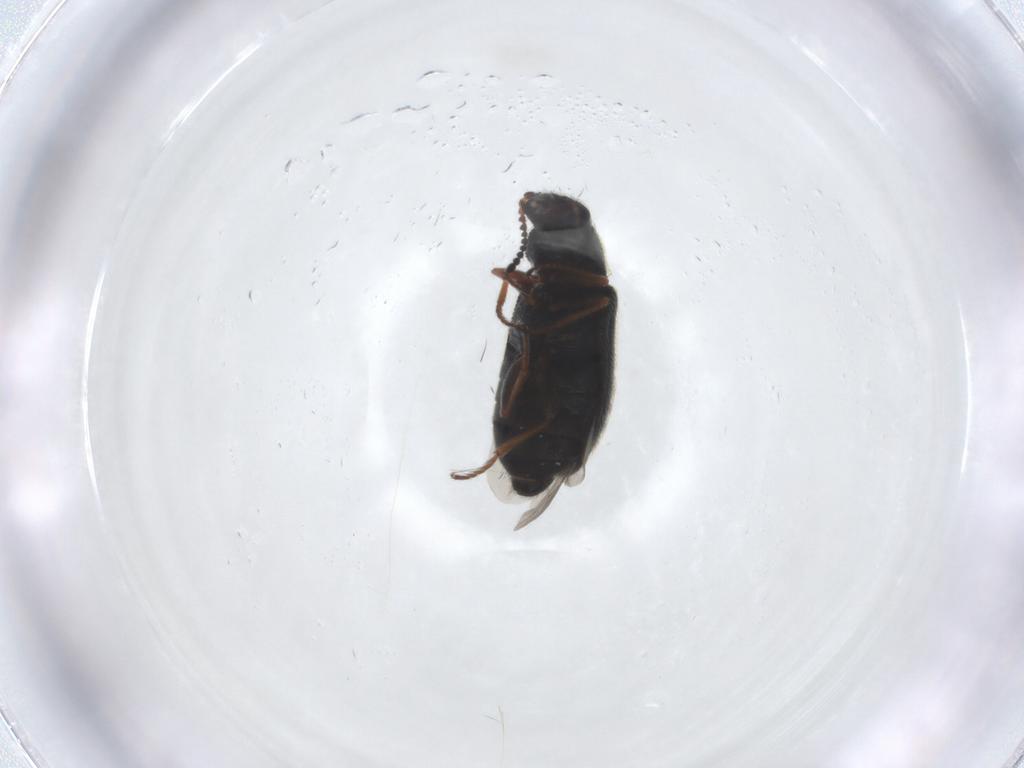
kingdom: Animalia
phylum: Arthropoda
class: Insecta
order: Coleoptera
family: Melyridae
